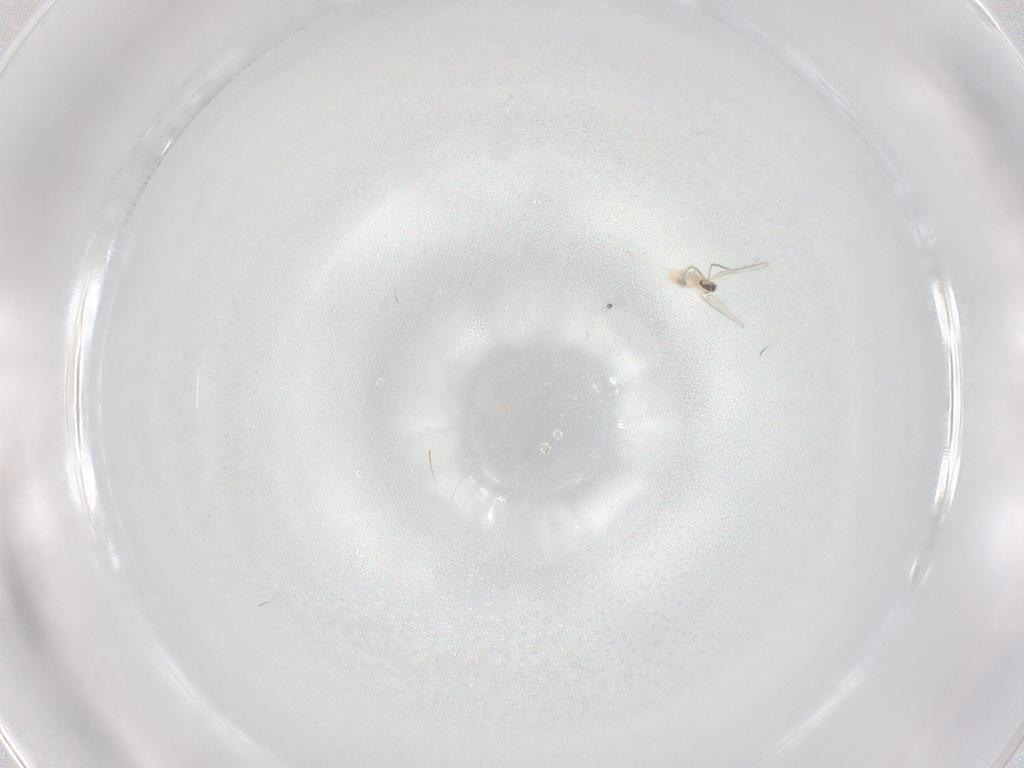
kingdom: Animalia
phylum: Arthropoda
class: Insecta
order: Diptera
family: Cecidomyiidae
